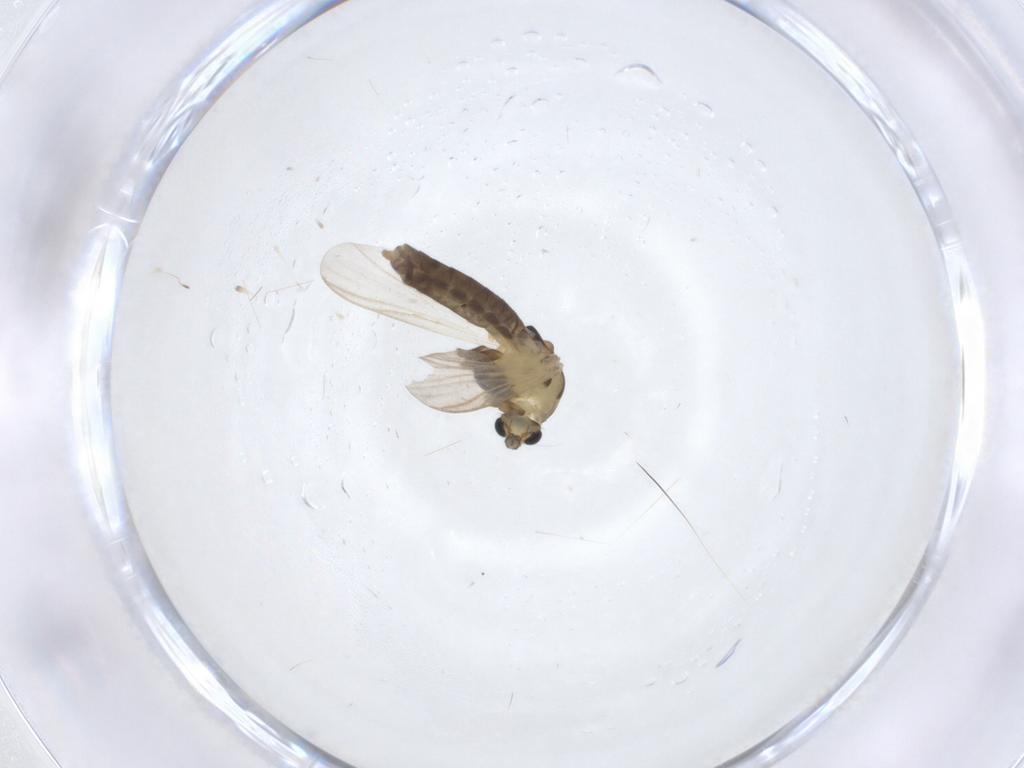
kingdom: Animalia
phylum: Arthropoda
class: Insecta
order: Diptera
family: Chironomidae
